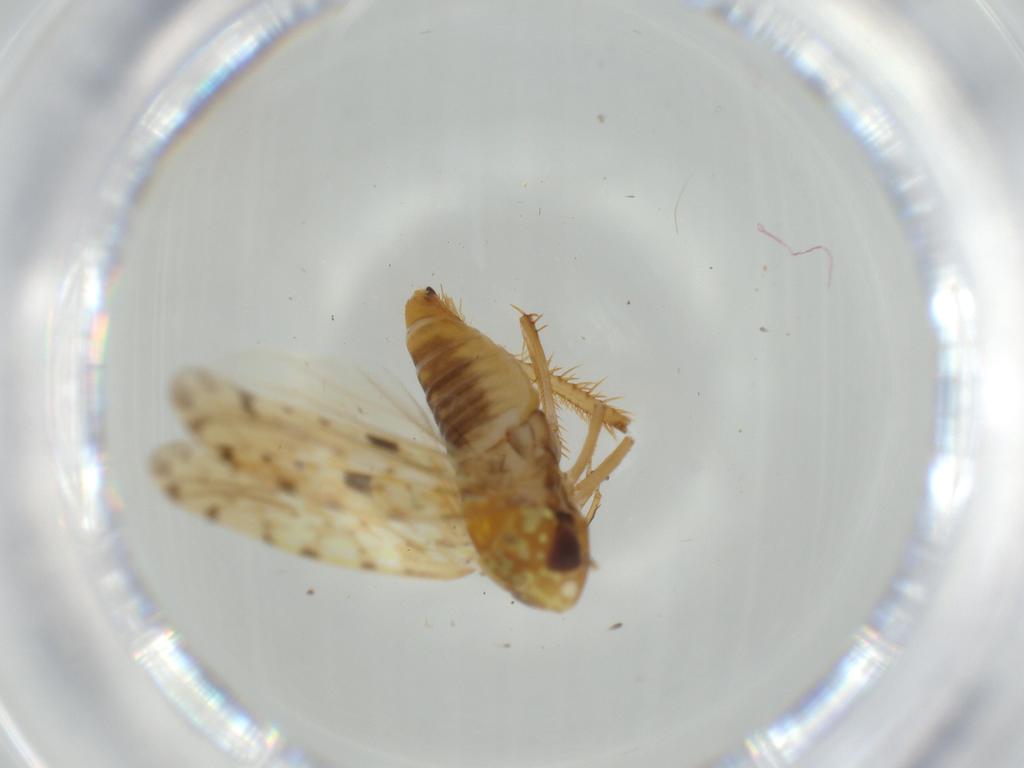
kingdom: Animalia
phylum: Arthropoda
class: Insecta
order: Hemiptera
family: Cicadellidae
